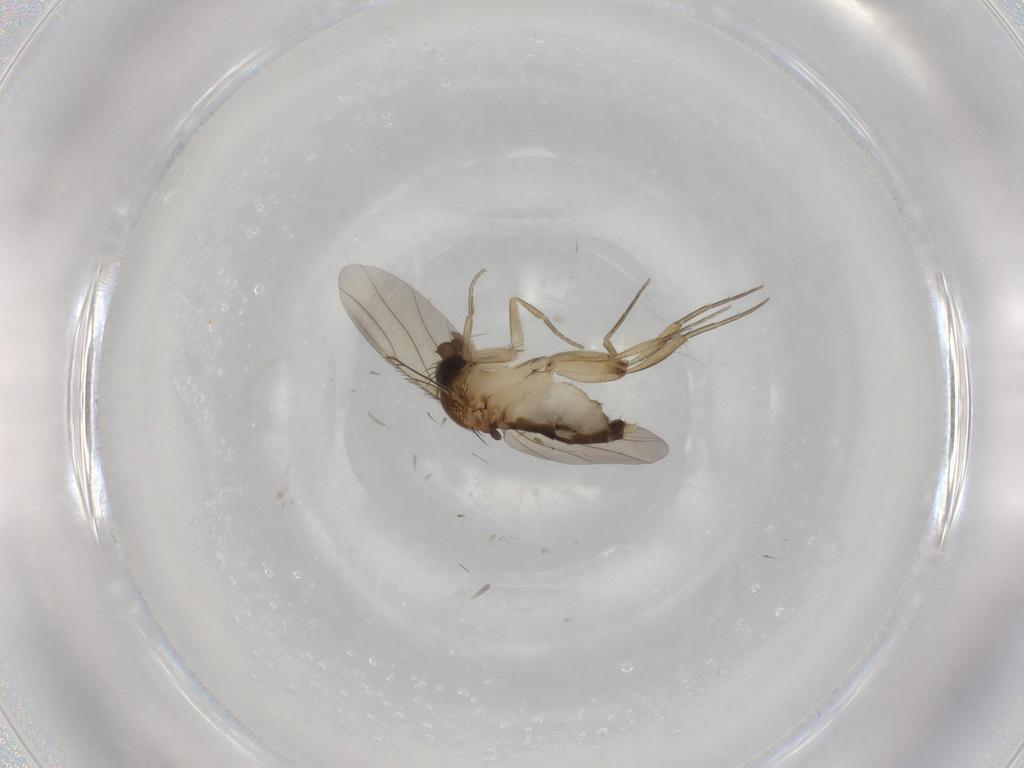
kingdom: Animalia
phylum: Arthropoda
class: Insecta
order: Diptera
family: Phoridae
